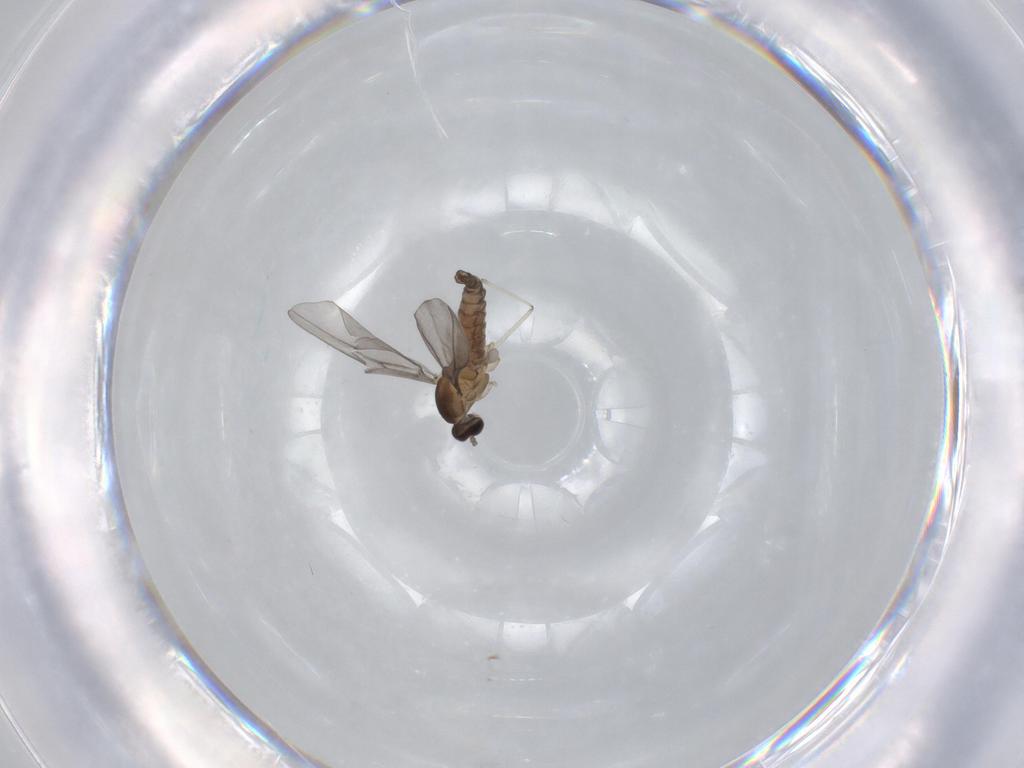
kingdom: Animalia
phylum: Arthropoda
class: Insecta
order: Diptera
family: Cecidomyiidae
